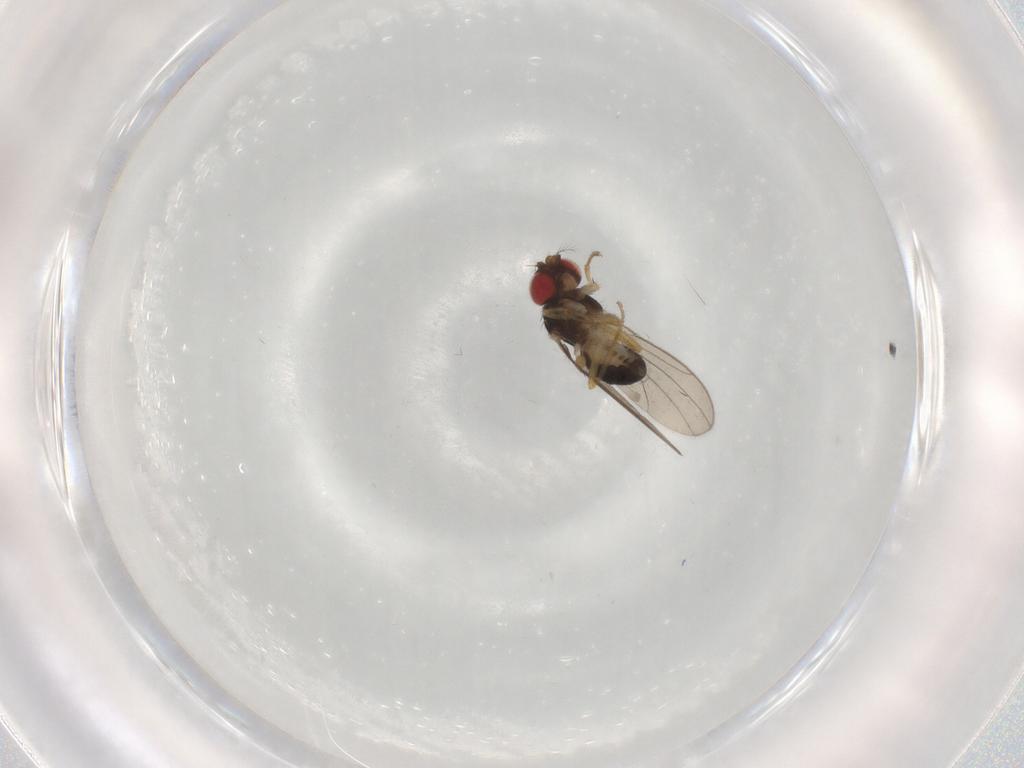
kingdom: Animalia
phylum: Arthropoda
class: Insecta
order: Diptera
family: Drosophilidae
